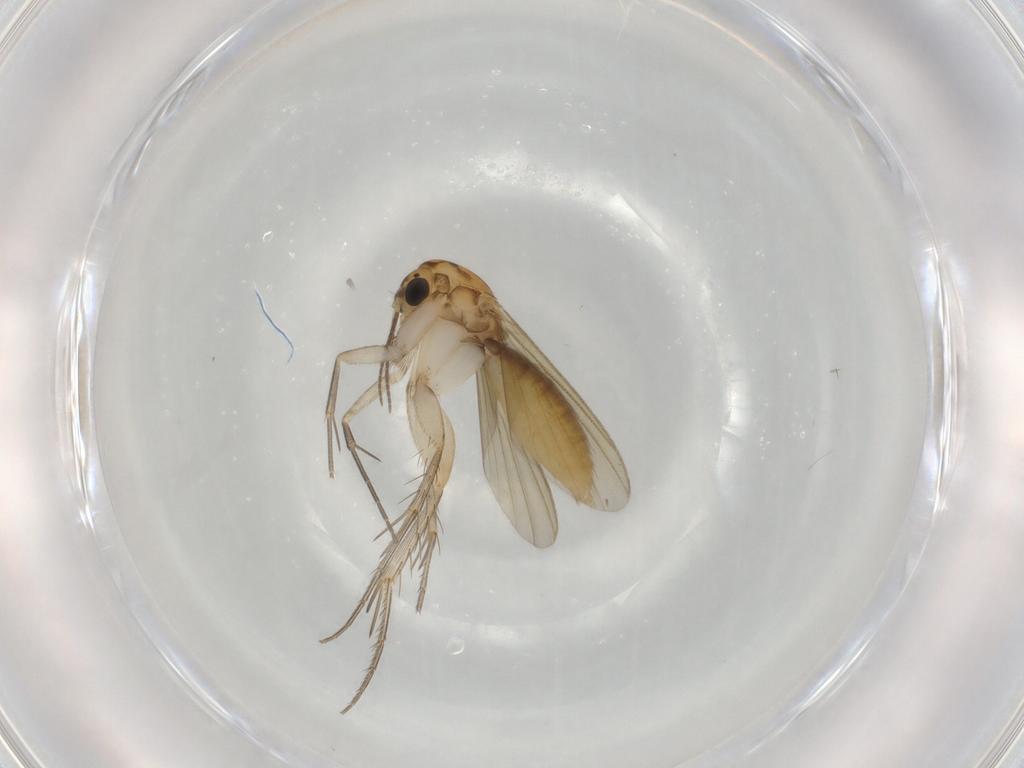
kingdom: Animalia
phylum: Arthropoda
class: Insecta
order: Diptera
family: Mycetophilidae
